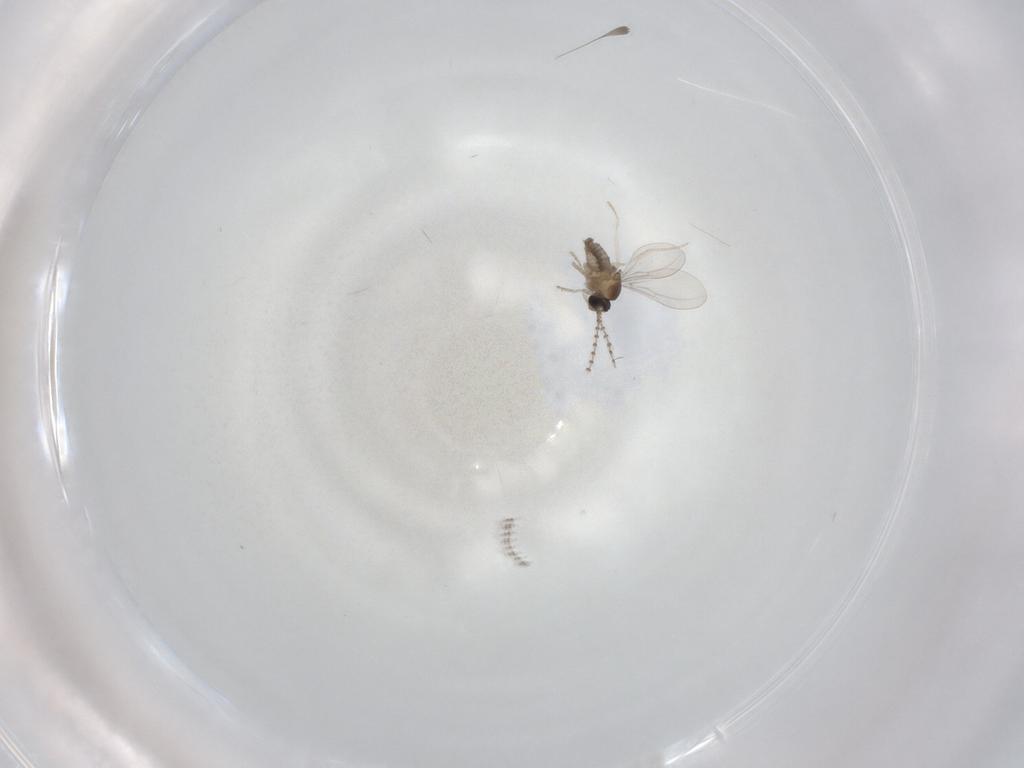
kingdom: Animalia
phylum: Arthropoda
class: Insecta
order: Diptera
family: Cecidomyiidae
